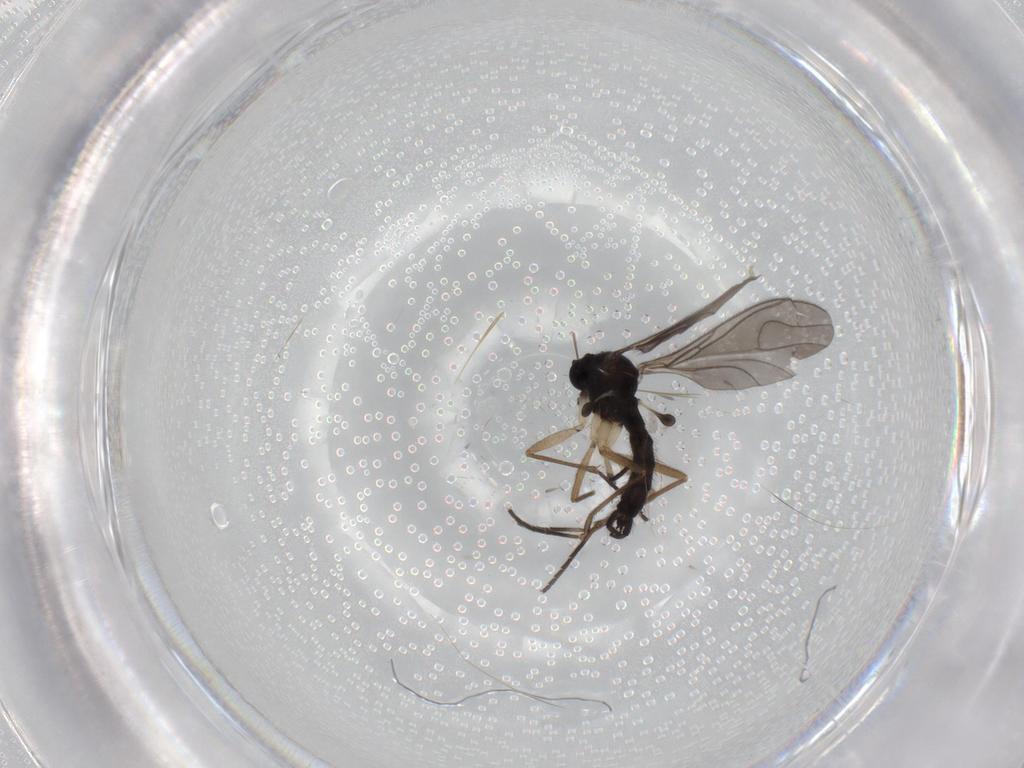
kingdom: Animalia
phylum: Arthropoda
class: Insecta
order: Diptera
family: Sciaridae
